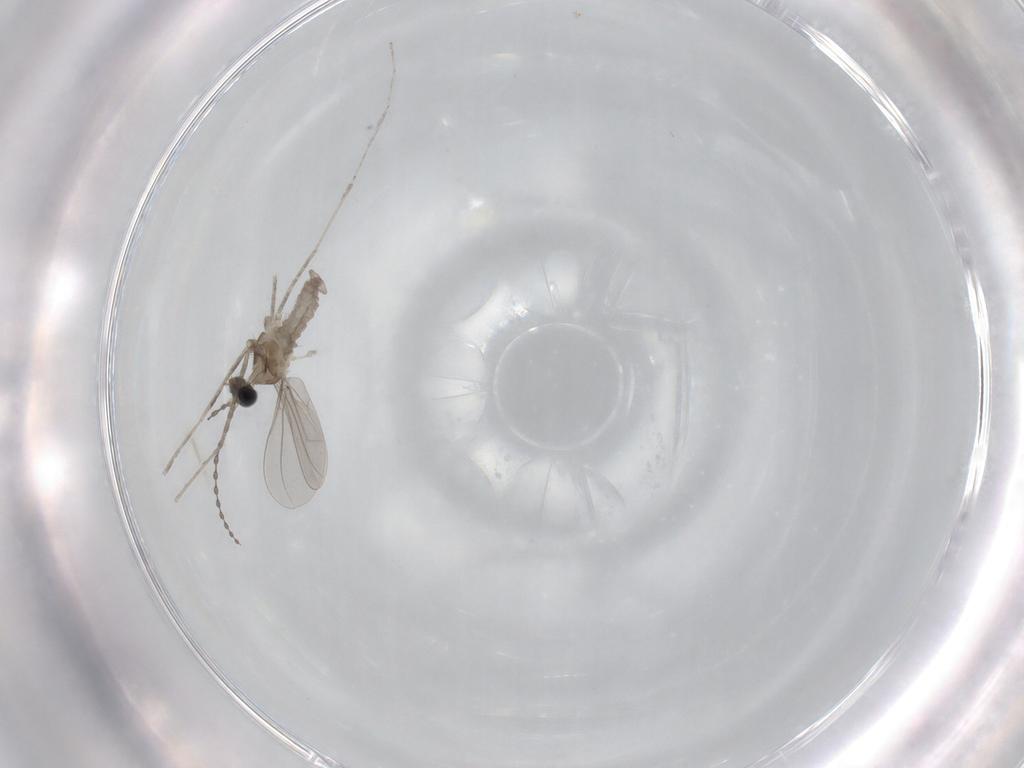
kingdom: Animalia
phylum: Arthropoda
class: Insecta
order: Diptera
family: Cecidomyiidae
